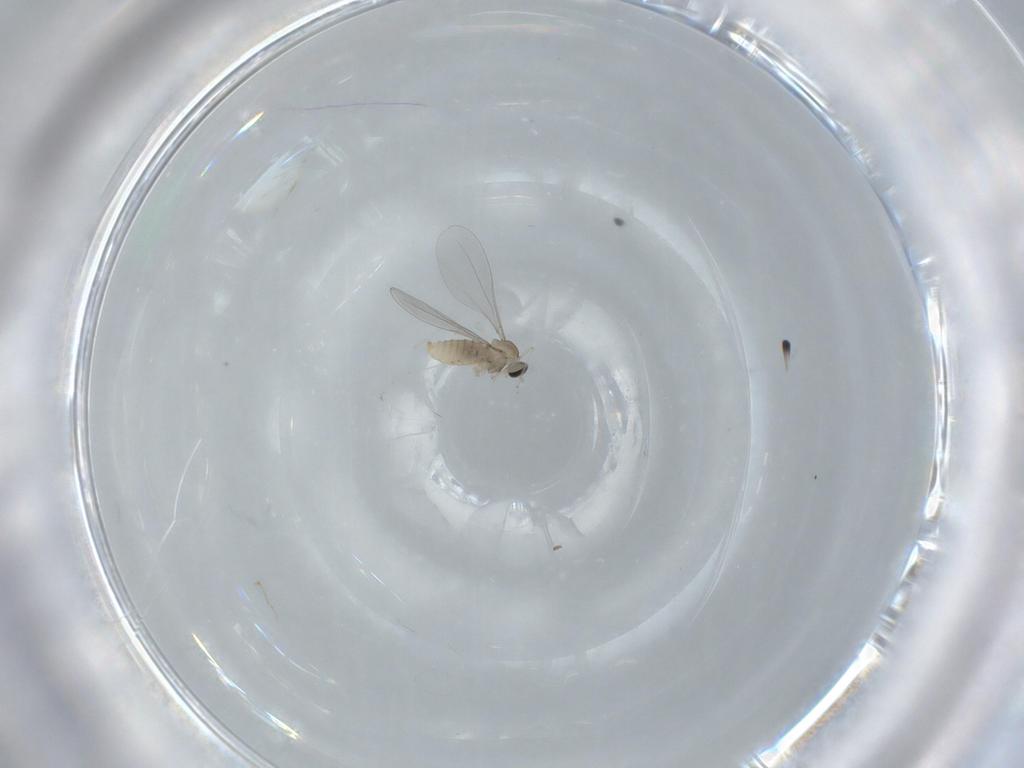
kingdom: Animalia
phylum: Arthropoda
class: Insecta
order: Diptera
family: Cecidomyiidae
